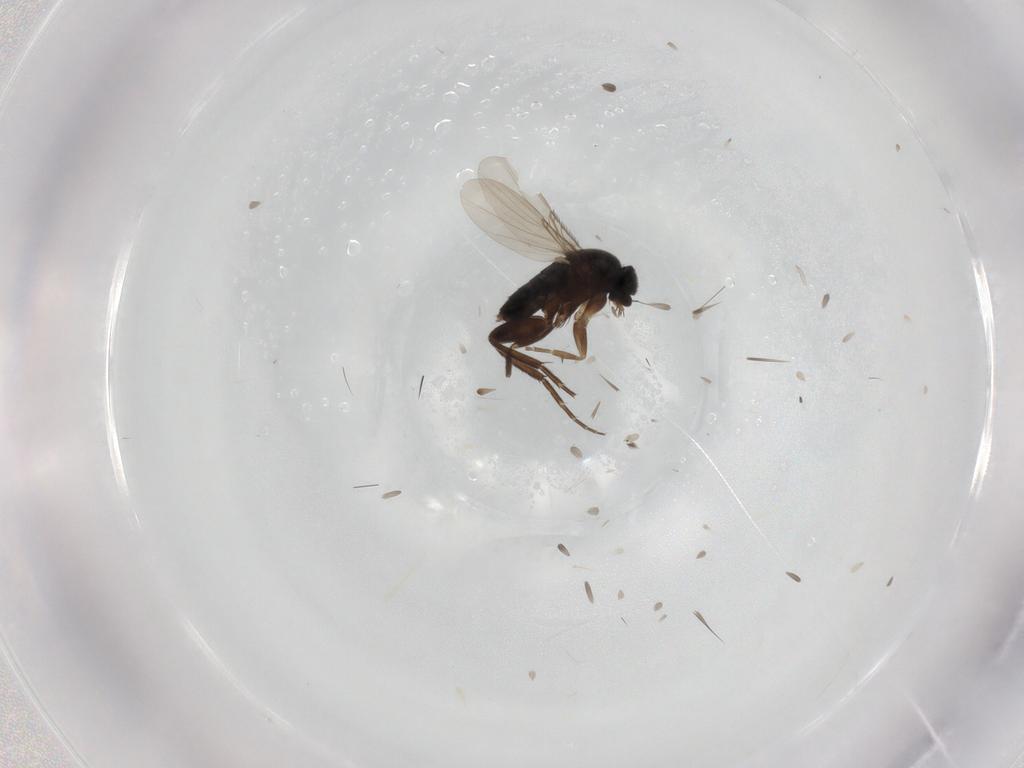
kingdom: Animalia
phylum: Arthropoda
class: Insecta
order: Diptera
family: Phoridae
